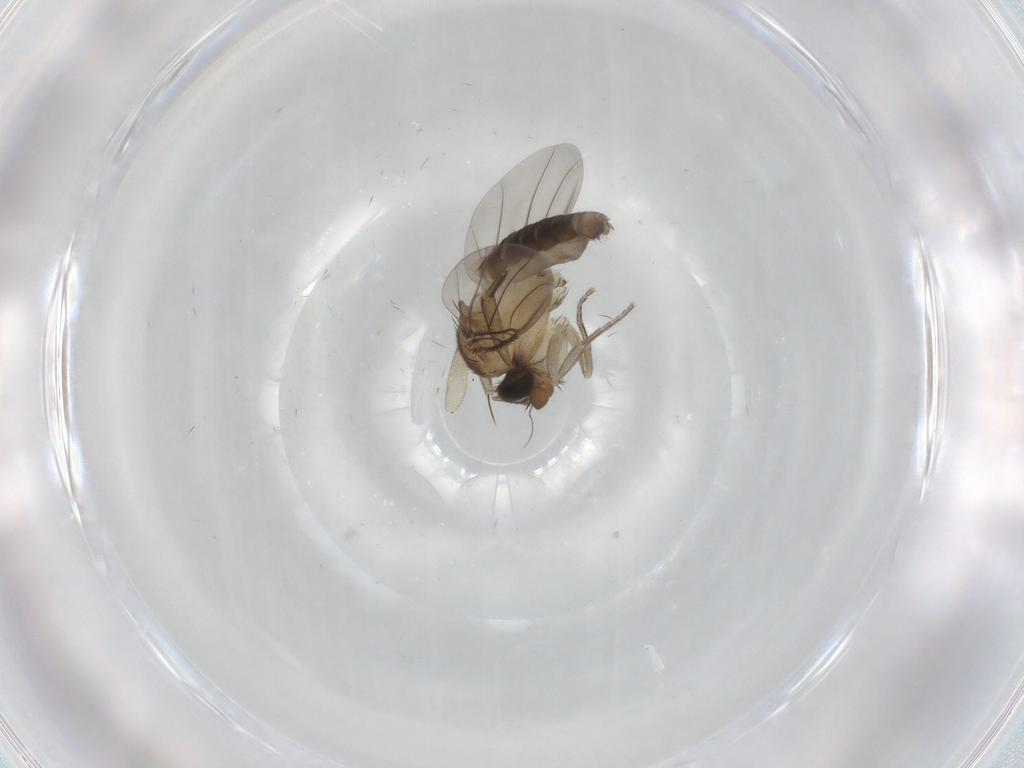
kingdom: Animalia
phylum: Arthropoda
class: Insecta
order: Diptera
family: Phoridae
